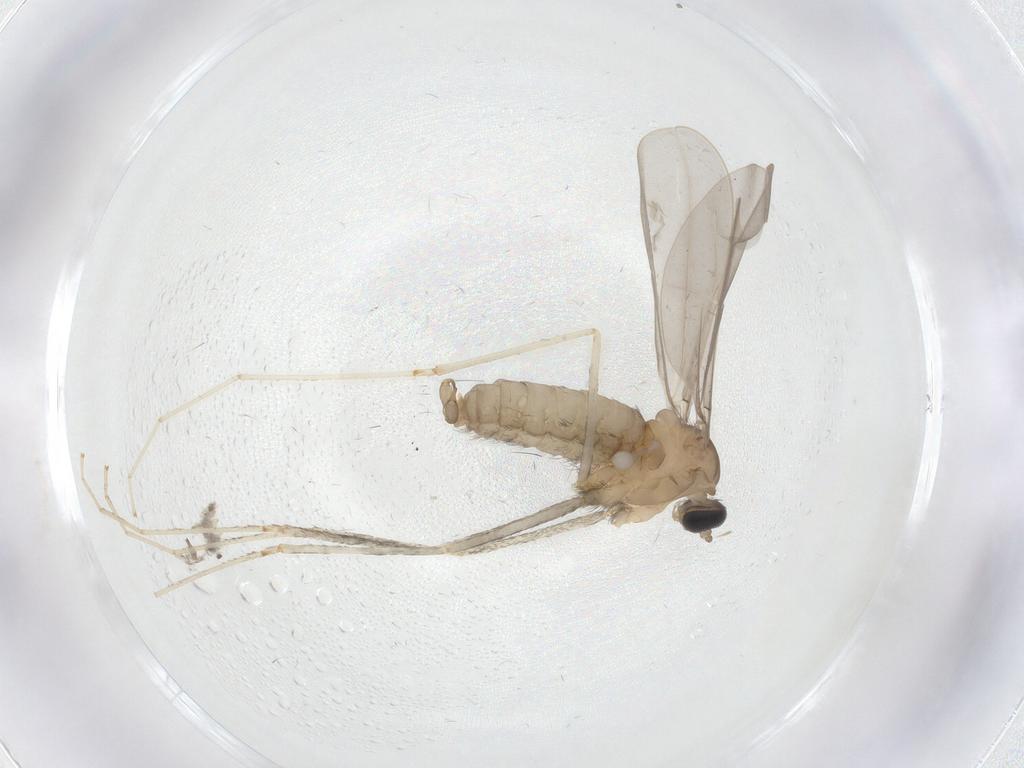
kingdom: Animalia
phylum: Arthropoda
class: Insecta
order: Diptera
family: Cecidomyiidae
